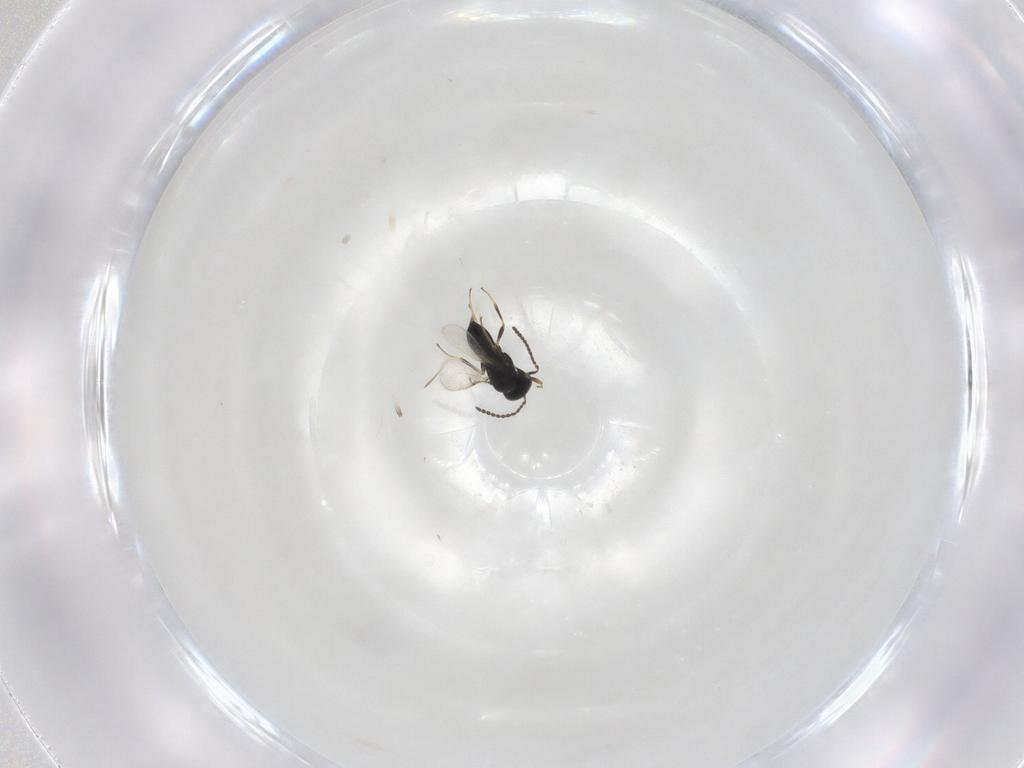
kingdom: Animalia
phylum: Arthropoda
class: Insecta
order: Hymenoptera
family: Scelionidae
